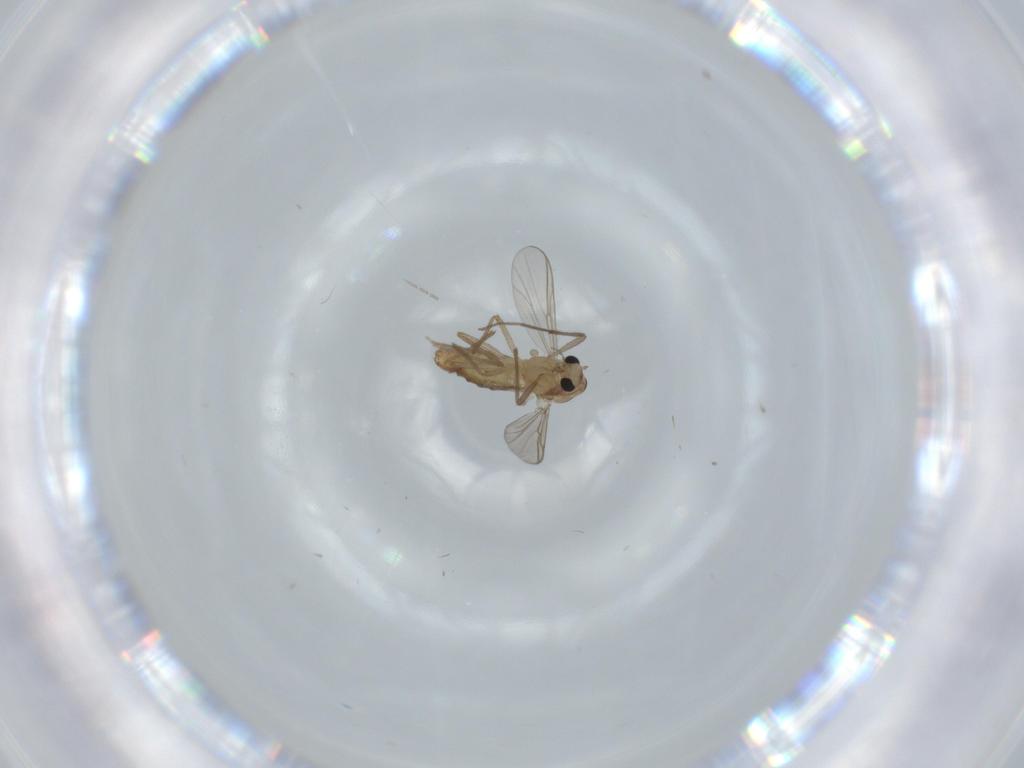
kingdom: Animalia
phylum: Arthropoda
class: Insecta
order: Diptera
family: Chironomidae
